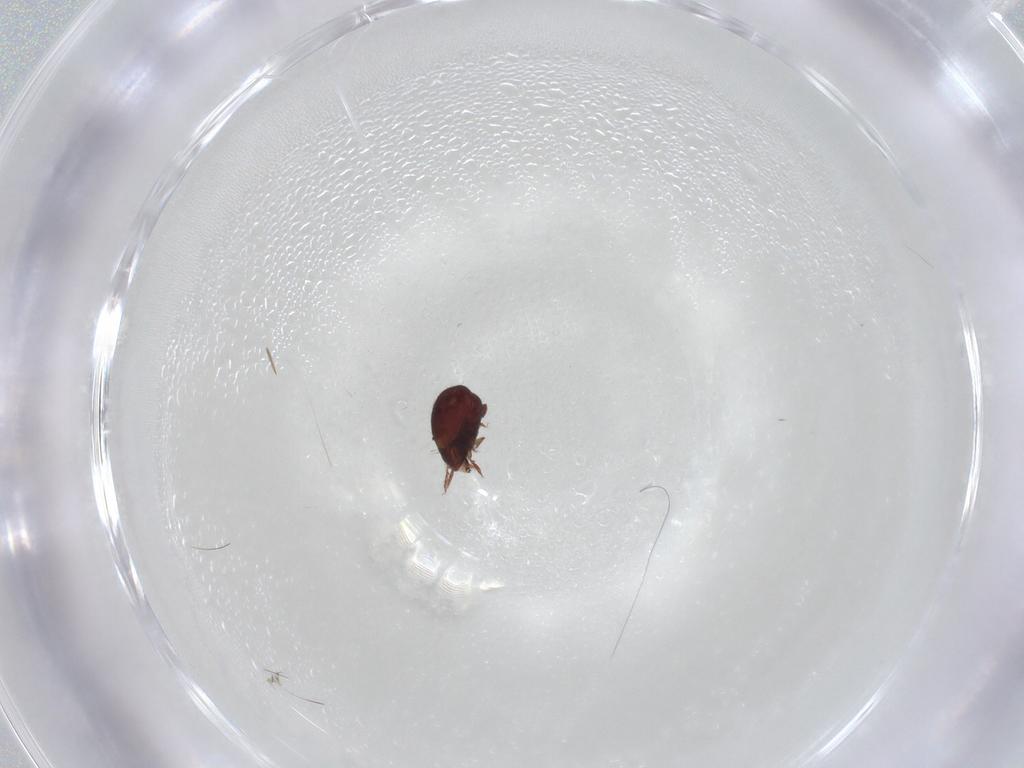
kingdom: Animalia
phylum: Arthropoda
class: Arachnida
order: Sarcoptiformes
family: Humerobatidae
